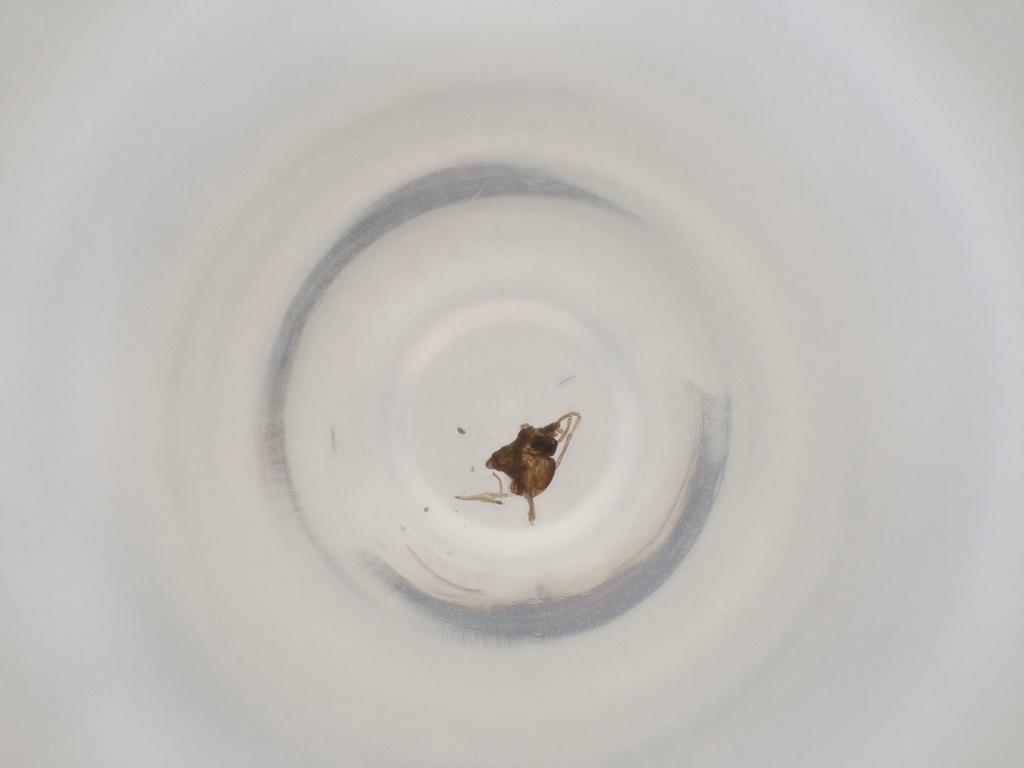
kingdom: Animalia
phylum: Arthropoda
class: Insecta
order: Diptera
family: Cecidomyiidae
